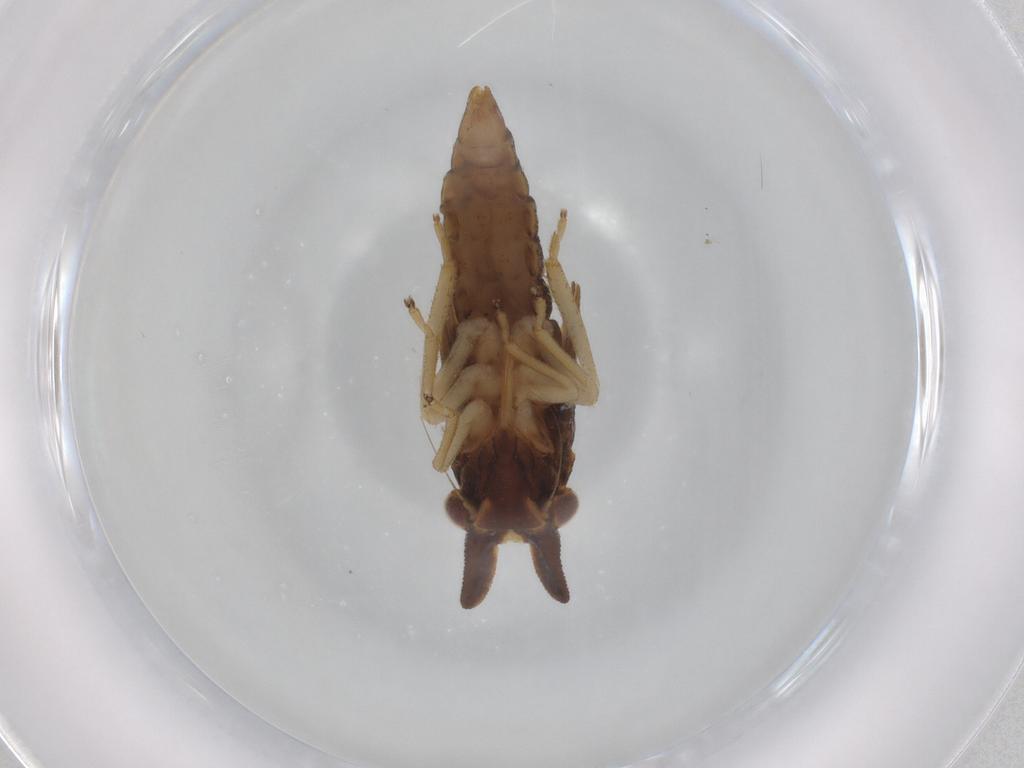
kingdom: Animalia
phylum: Arthropoda
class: Insecta
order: Hemiptera
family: Cicadellidae
